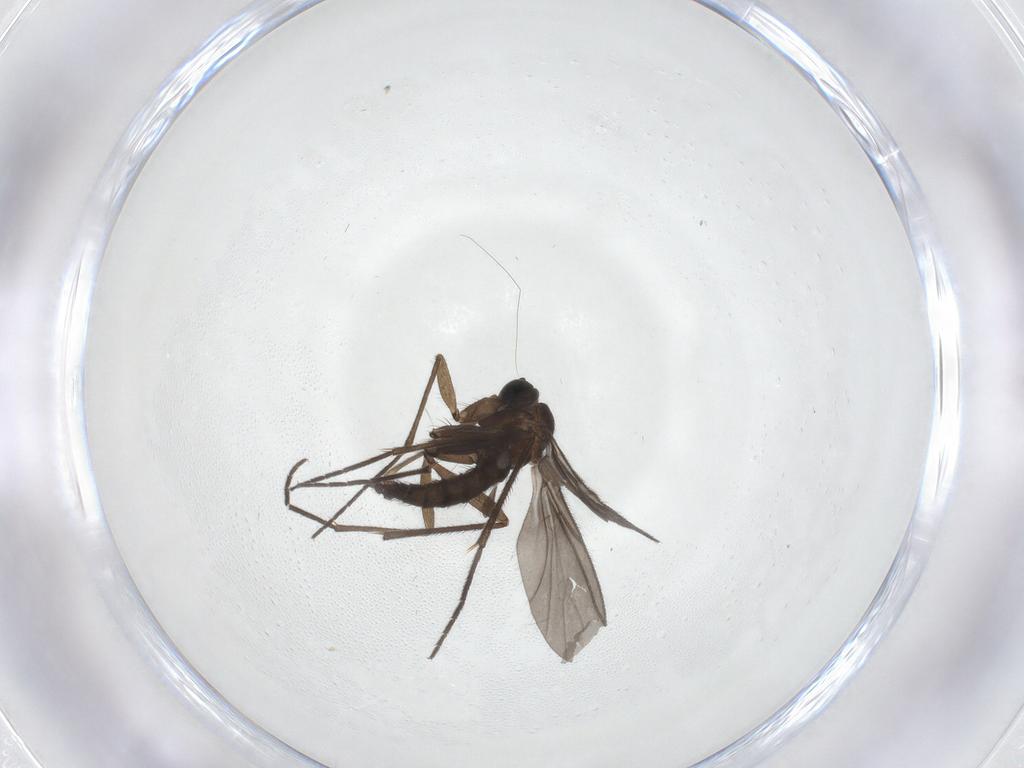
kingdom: Animalia
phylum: Arthropoda
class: Insecta
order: Diptera
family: Sciaridae
